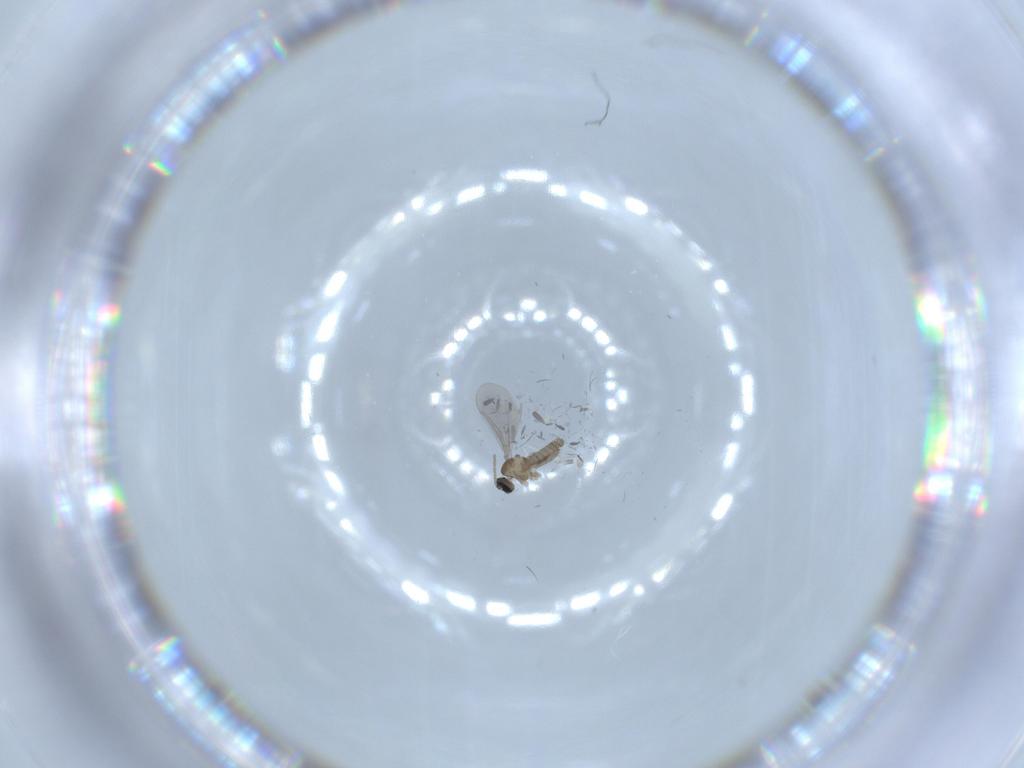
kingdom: Animalia
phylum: Arthropoda
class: Insecta
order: Diptera
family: Cecidomyiidae
